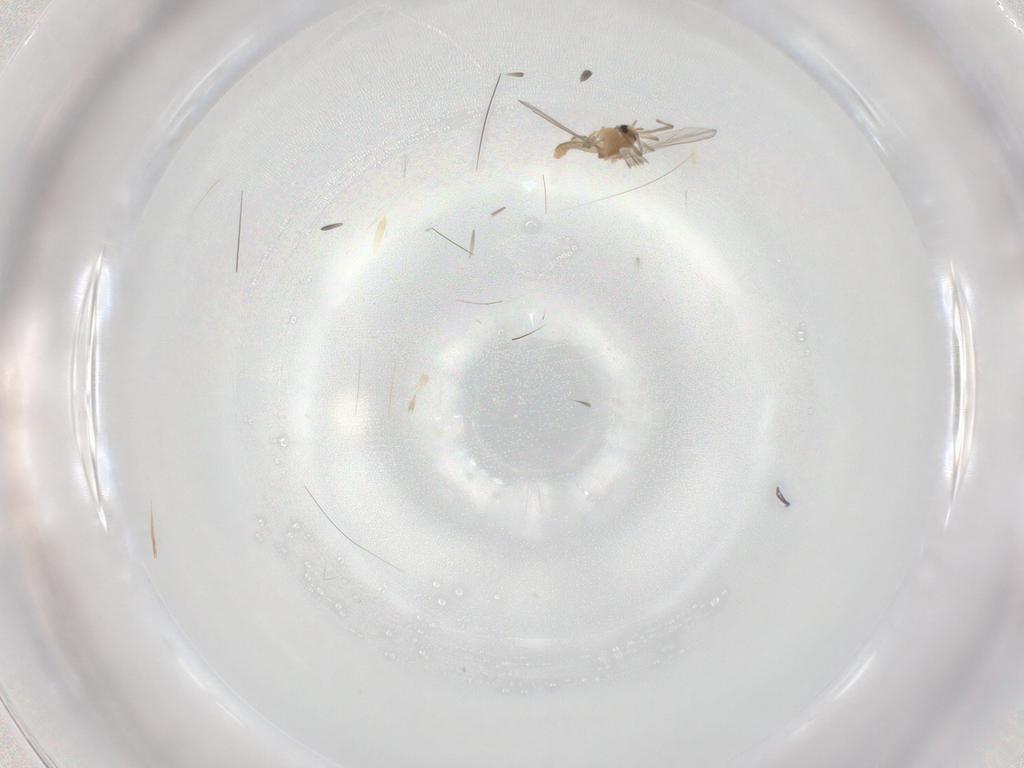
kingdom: Animalia
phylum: Arthropoda
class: Insecta
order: Diptera
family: Chironomidae
